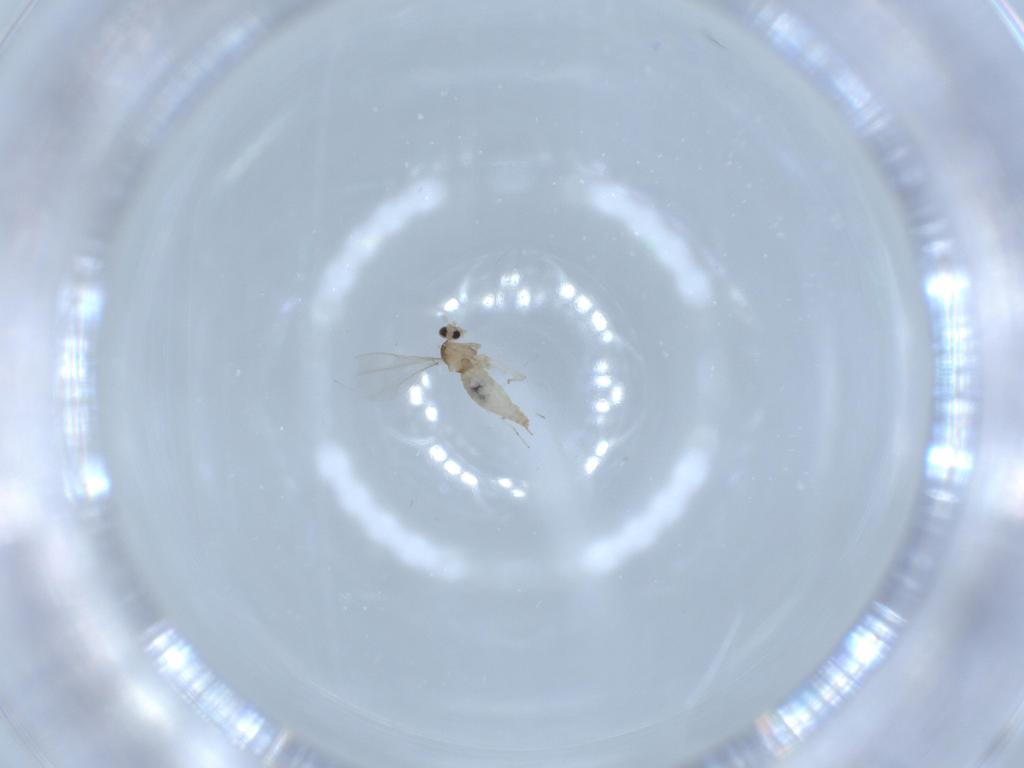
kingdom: Animalia
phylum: Arthropoda
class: Insecta
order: Diptera
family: Cecidomyiidae
